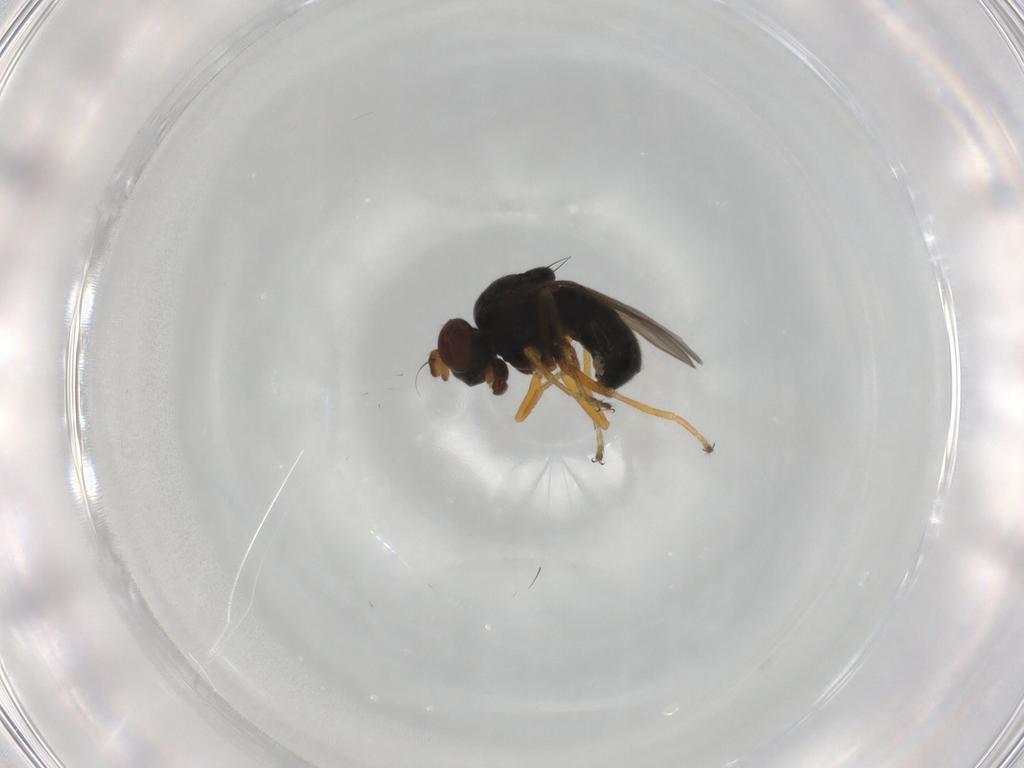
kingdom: Animalia
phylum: Arthropoda
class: Insecta
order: Diptera
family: Ephydridae
